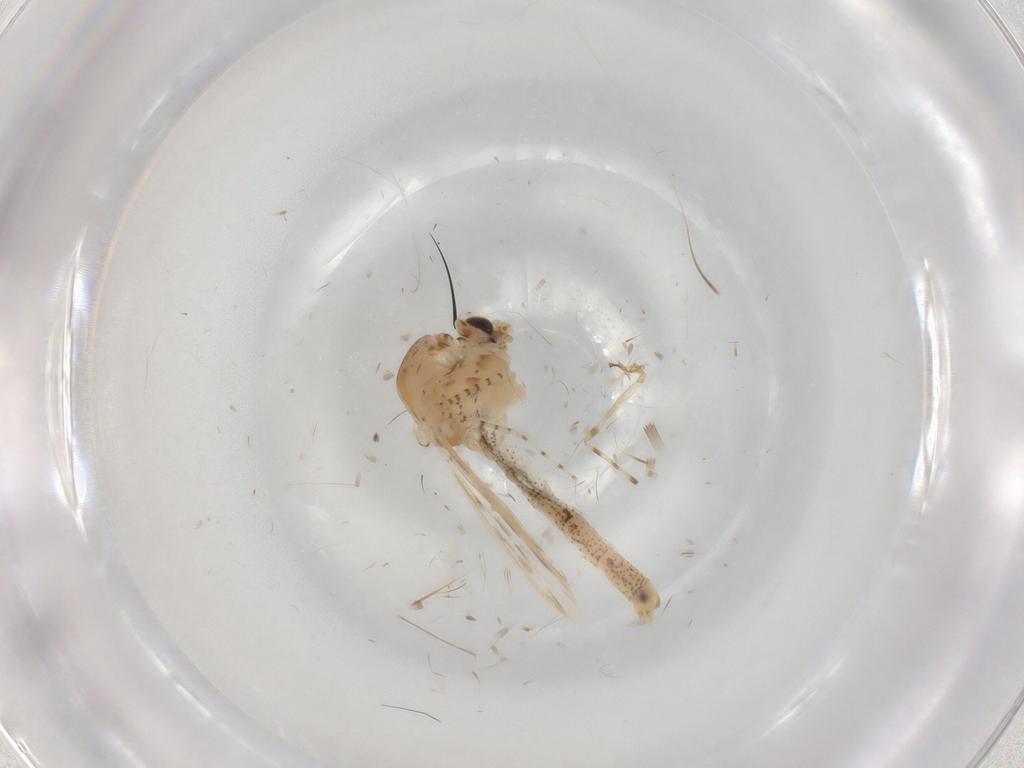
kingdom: Animalia
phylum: Arthropoda
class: Insecta
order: Diptera
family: Chaoboridae
